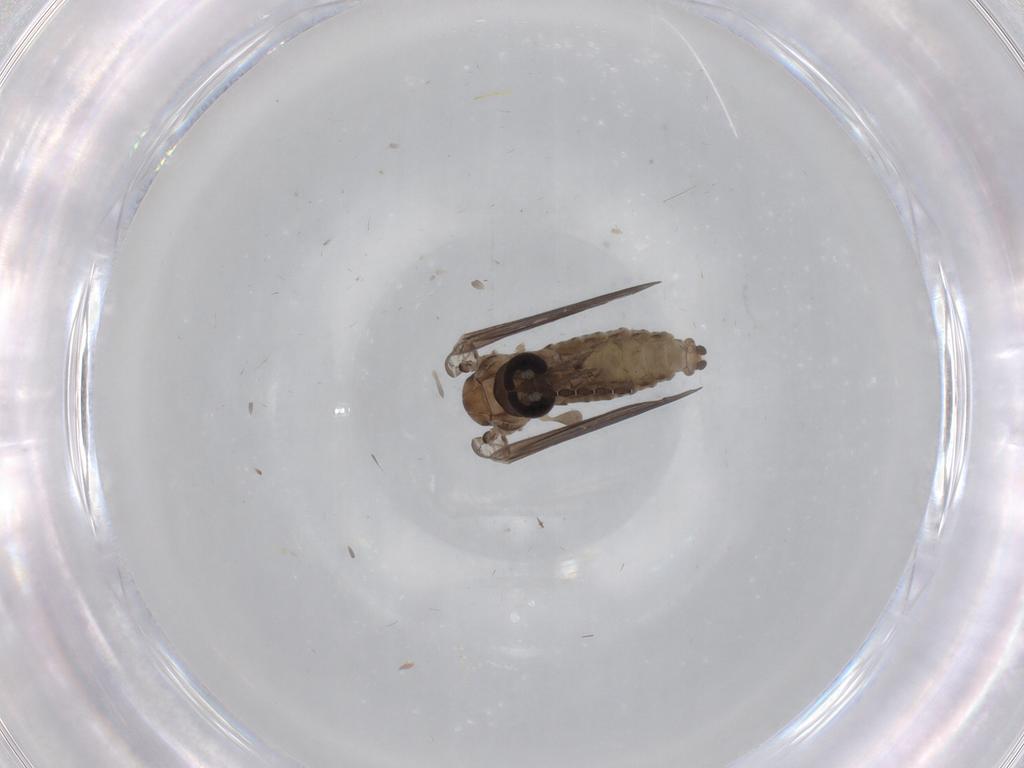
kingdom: Animalia
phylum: Arthropoda
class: Insecta
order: Diptera
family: Psychodidae
